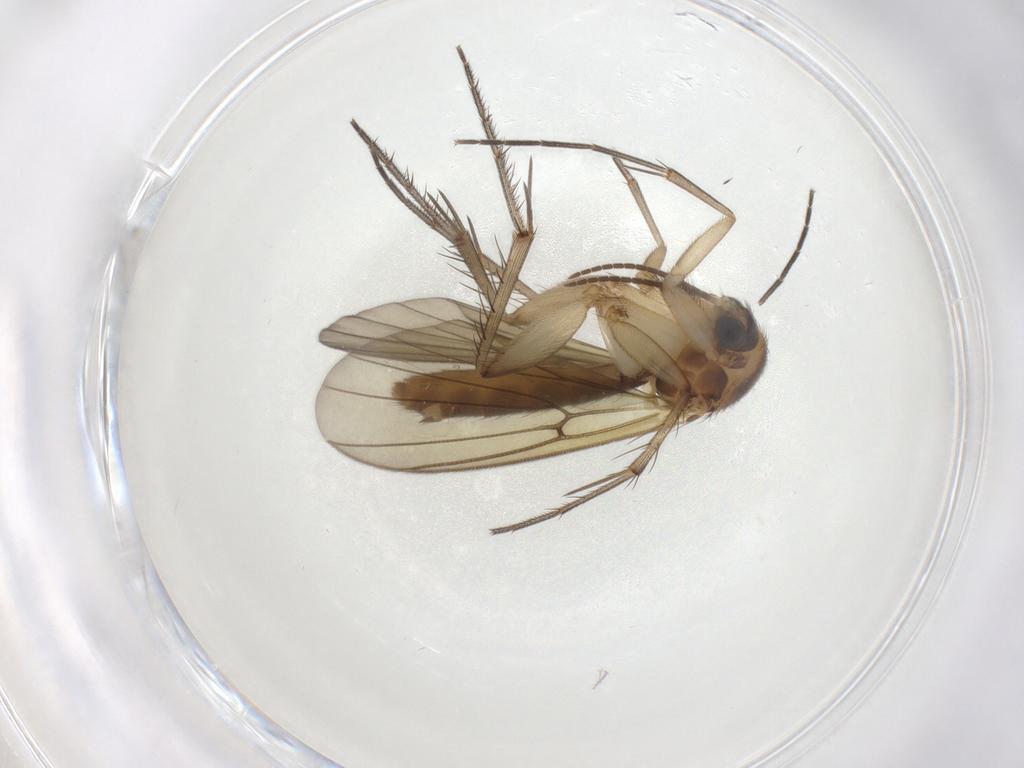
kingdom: Animalia
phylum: Arthropoda
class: Insecta
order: Diptera
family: Mycetophilidae
